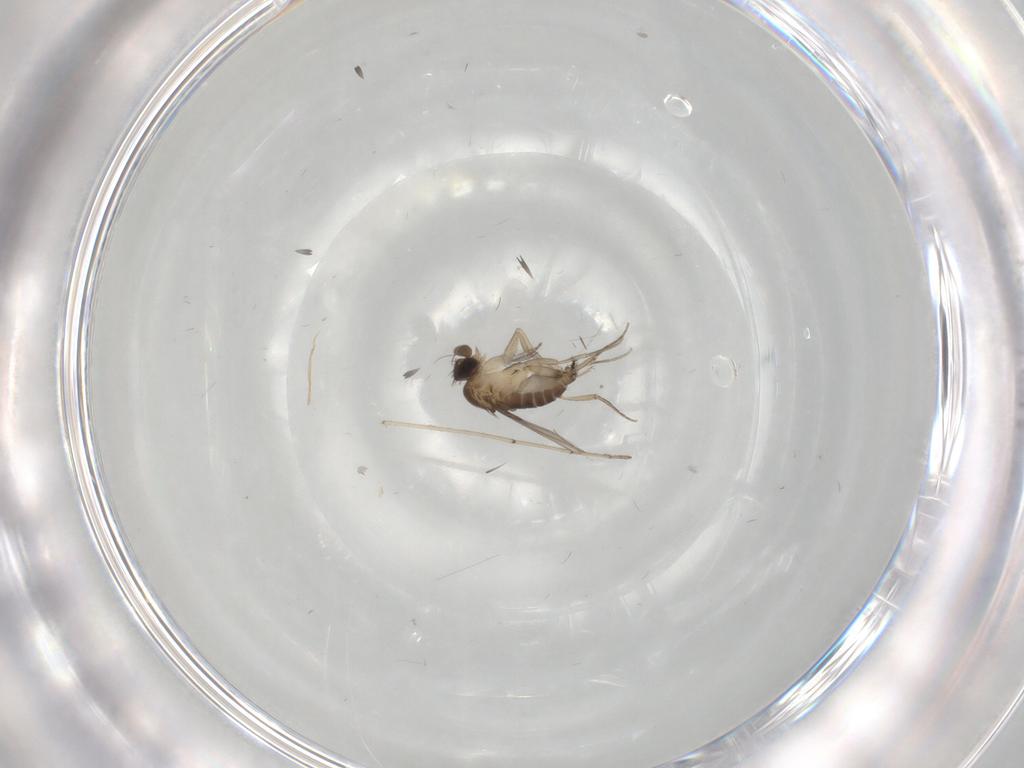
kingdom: Animalia
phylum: Arthropoda
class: Insecta
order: Diptera
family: Phoridae
